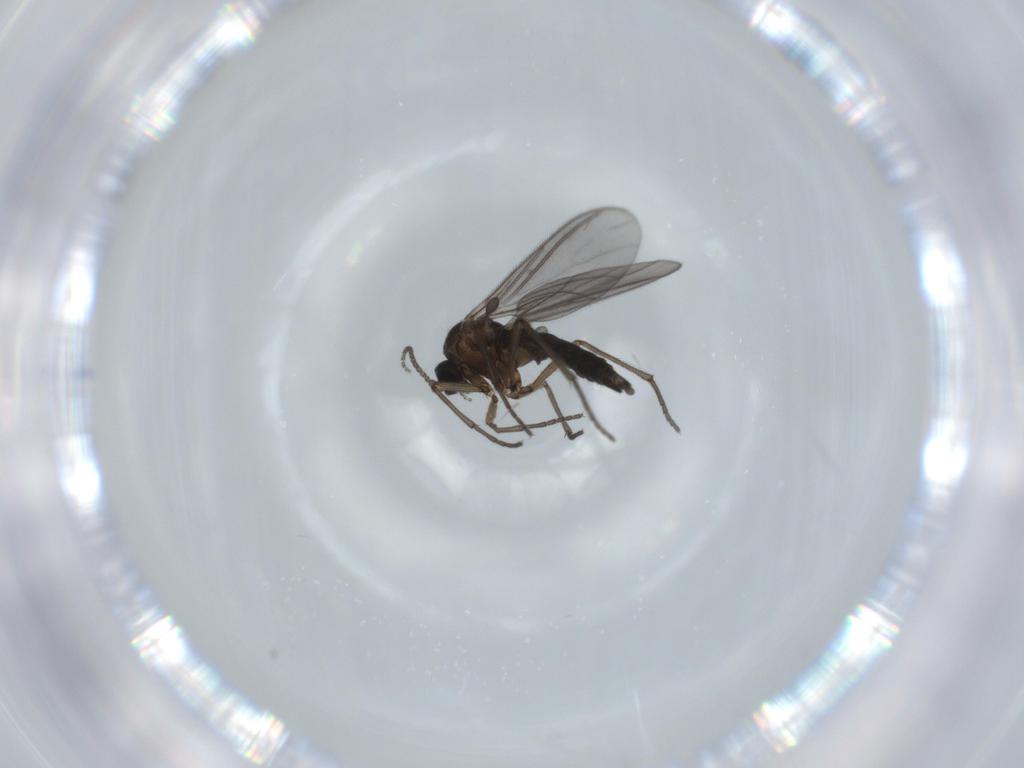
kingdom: Animalia
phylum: Arthropoda
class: Insecta
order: Diptera
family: Sciaridae
